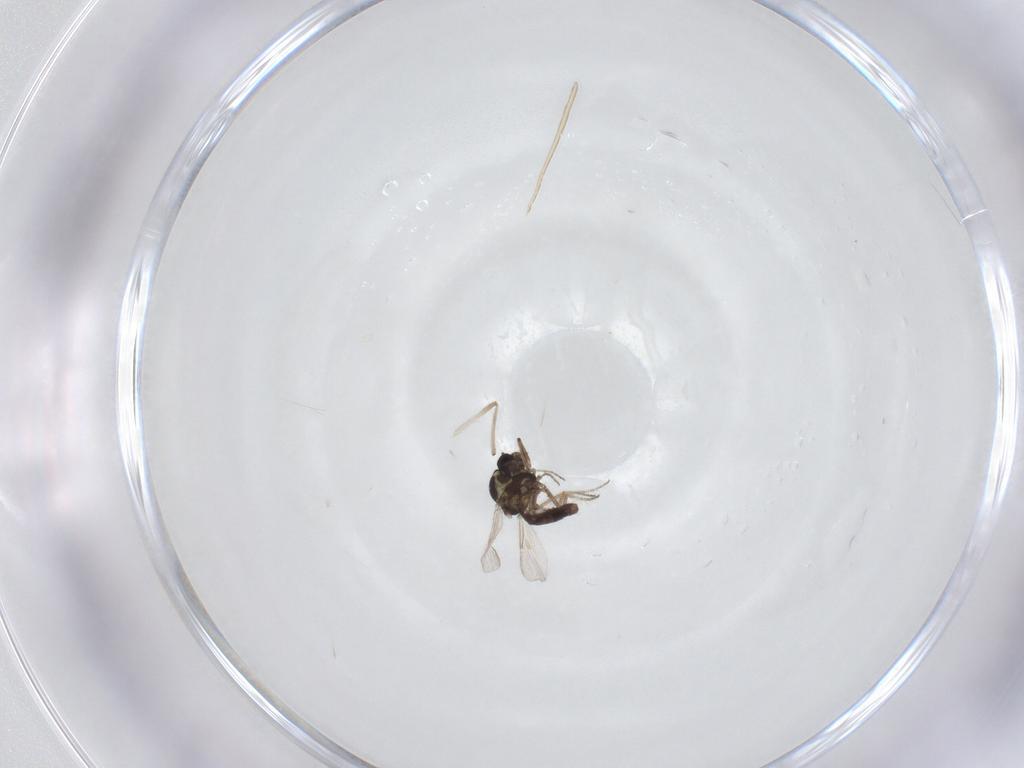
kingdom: Animalia
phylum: Arthropoda
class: Insecta
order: Diptera
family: Ceratopogonidae
